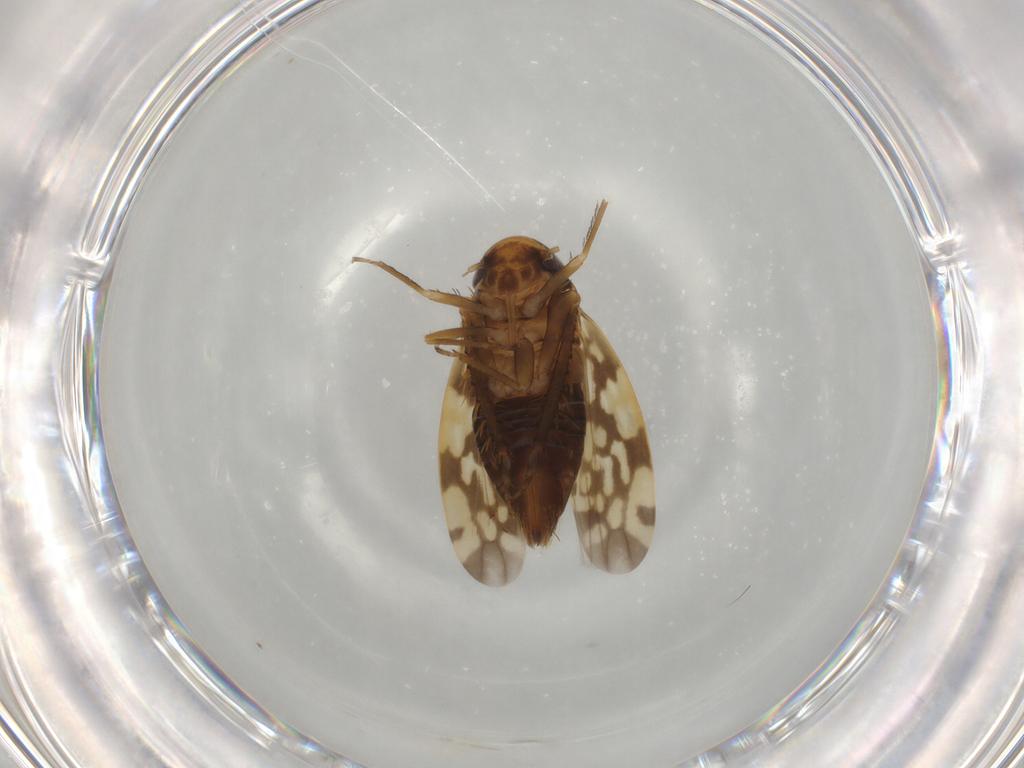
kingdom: Animalia
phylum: Arthropoda
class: Insecta
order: Hemiptera
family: Cicadellidae
